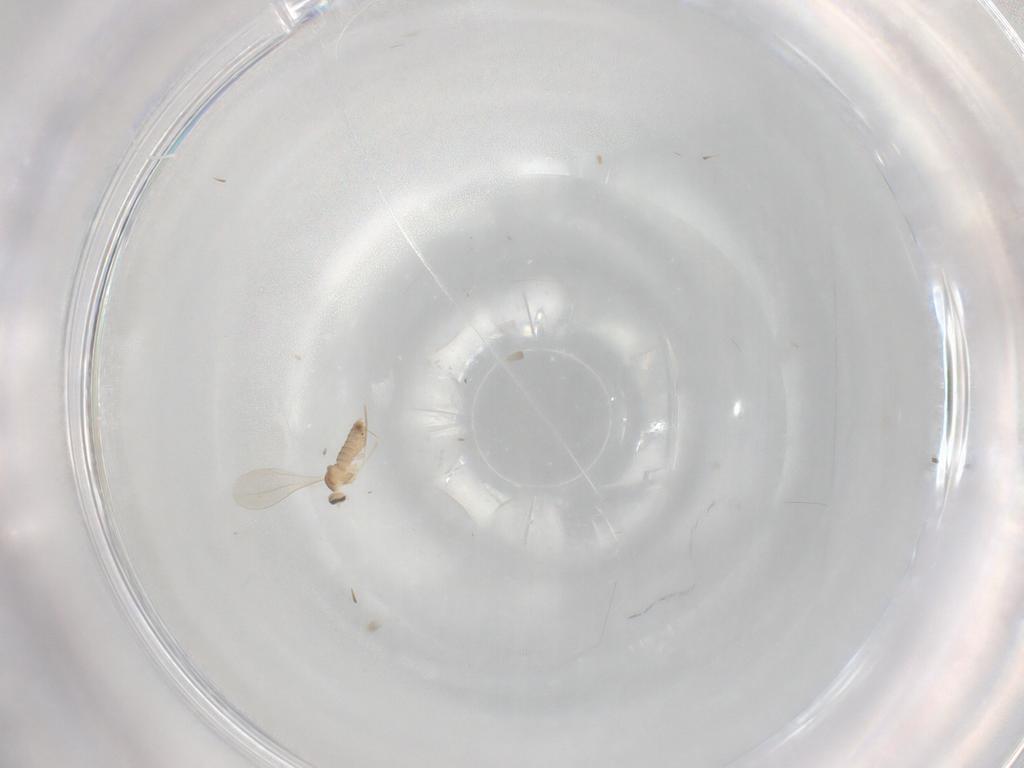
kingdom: Animalia
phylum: Arthropoda
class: Insecta
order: Diptera
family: Cecidomyiidae
